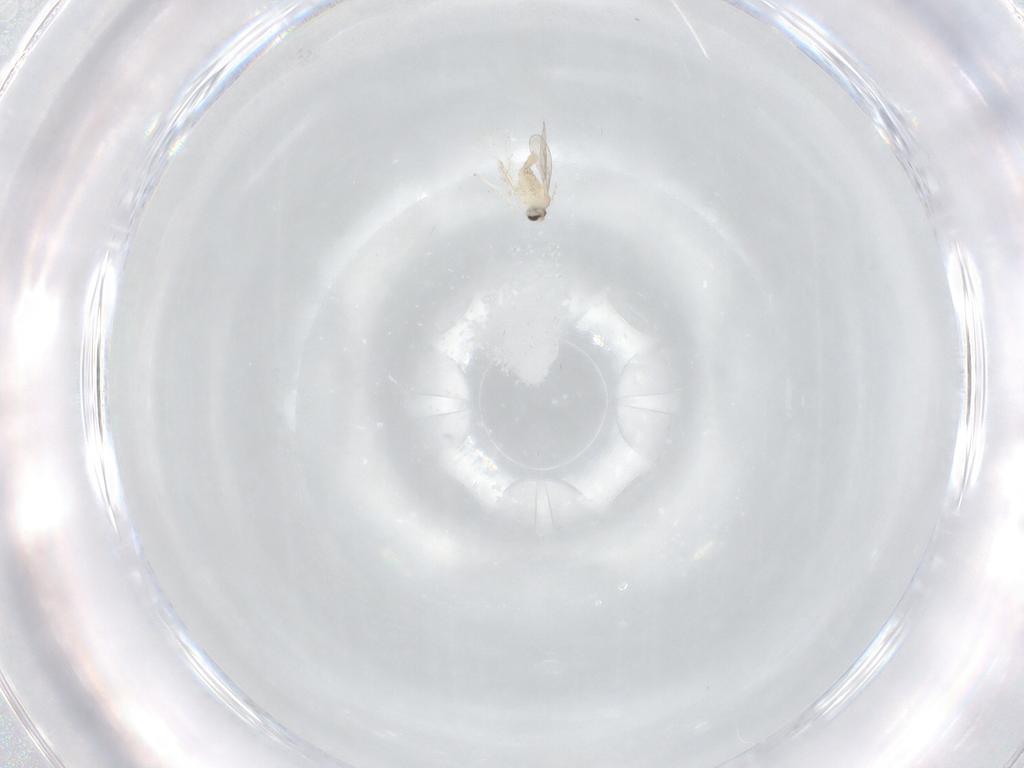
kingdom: Animalia
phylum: Arthropoda
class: Insecta
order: Diptera
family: Cecidomyiidae
